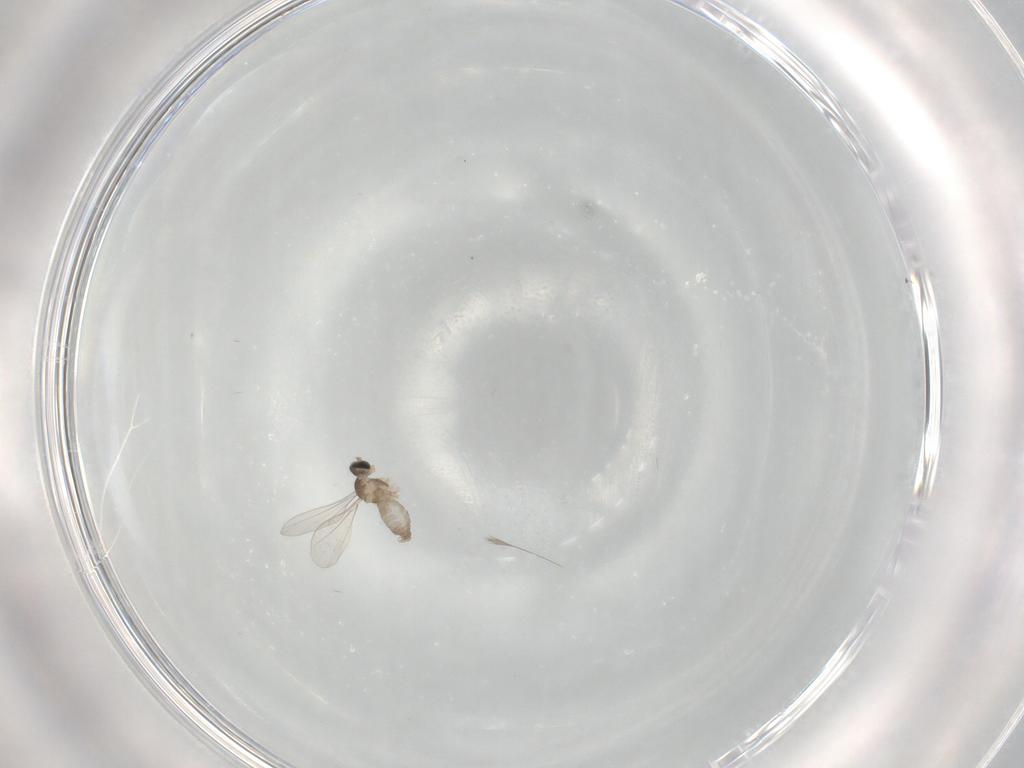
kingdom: Animalia
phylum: Arthropoda
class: Insecta
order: Diptera
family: Cecidomyiidae
